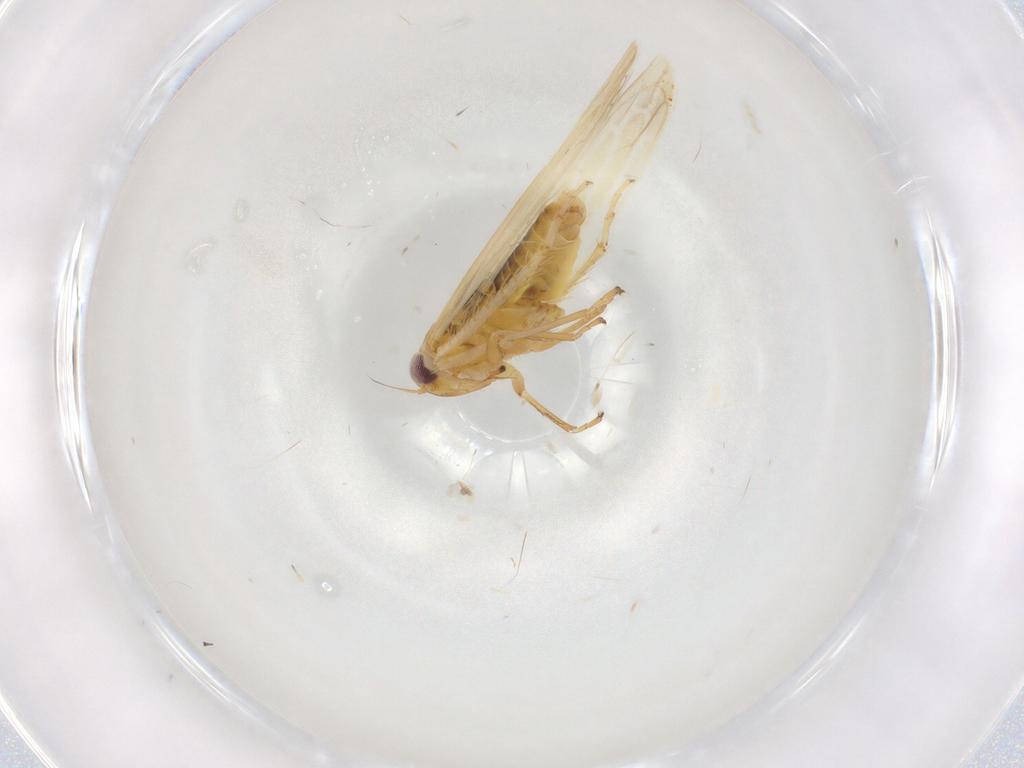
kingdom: Animalia
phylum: Arthropoda
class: Insecta
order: Hemiptera
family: Cicadellidae
